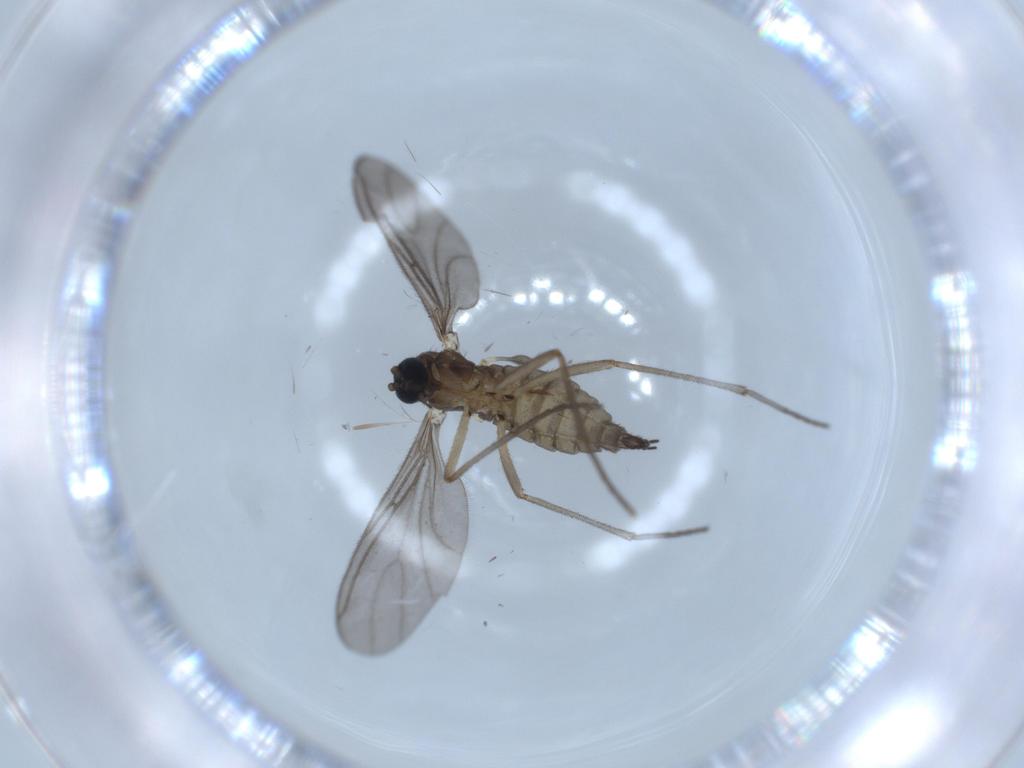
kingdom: Animalia
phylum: Arthropoda
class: Insecta
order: Diptera
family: Sciaridae
